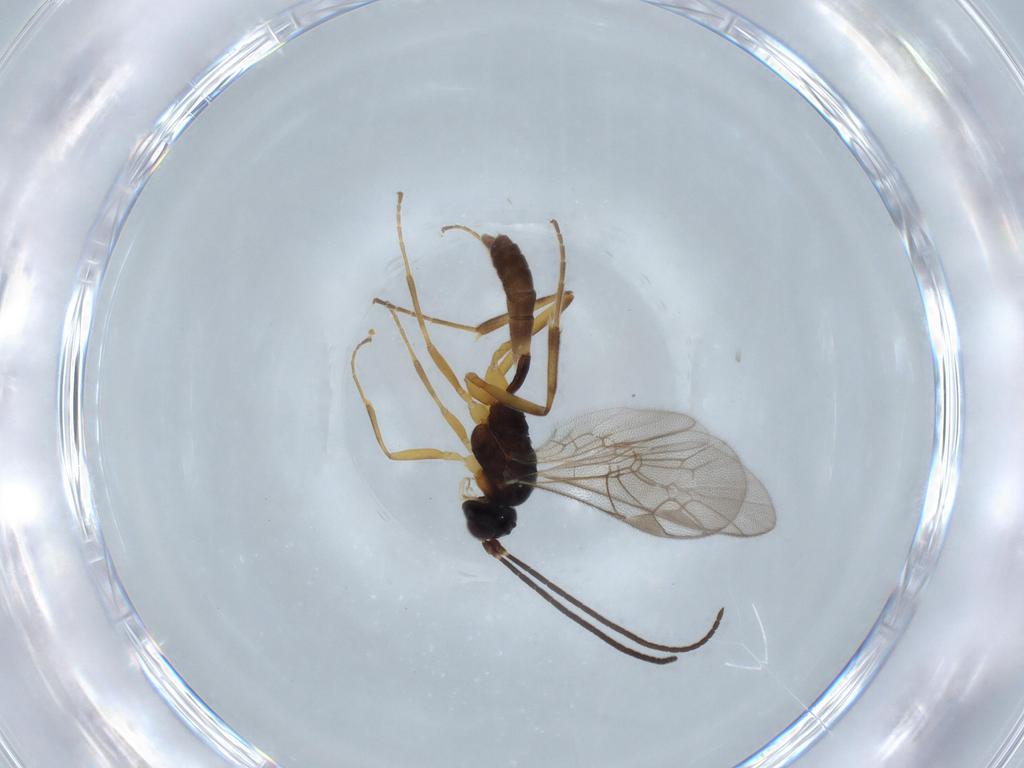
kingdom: Animalia
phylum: Arthropoda
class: Insecta
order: Hymenoptera
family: Ichneumonidae
